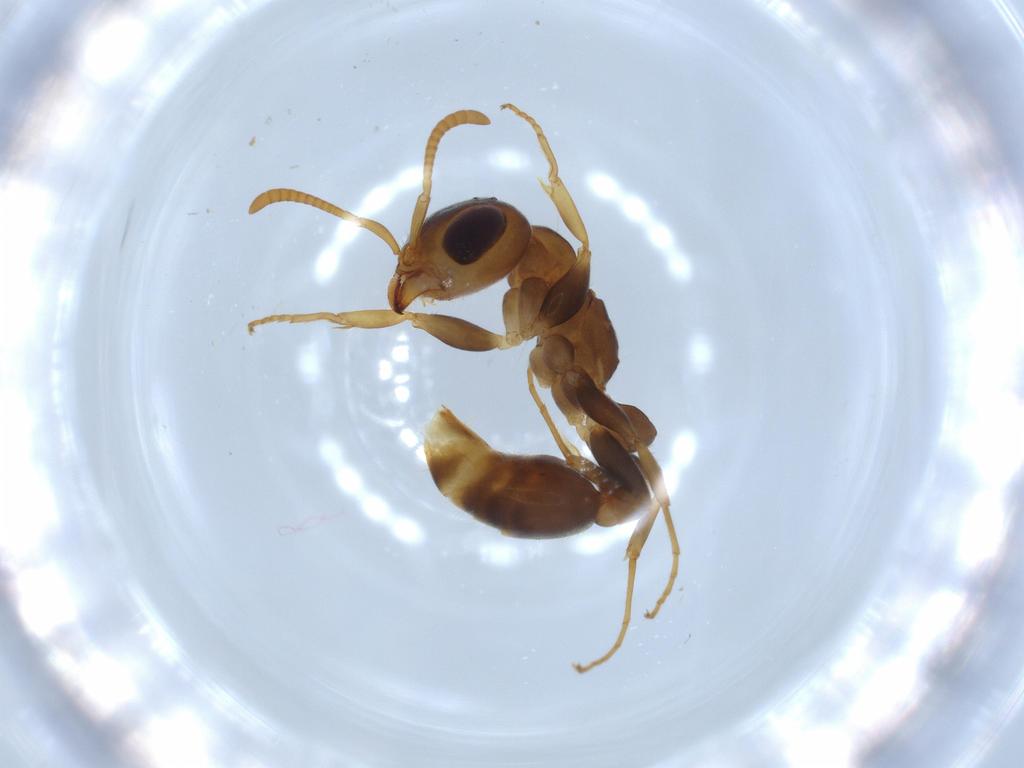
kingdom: Animalia
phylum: Arthropoda
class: Insecta
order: Hymenoptera
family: Formicidae
